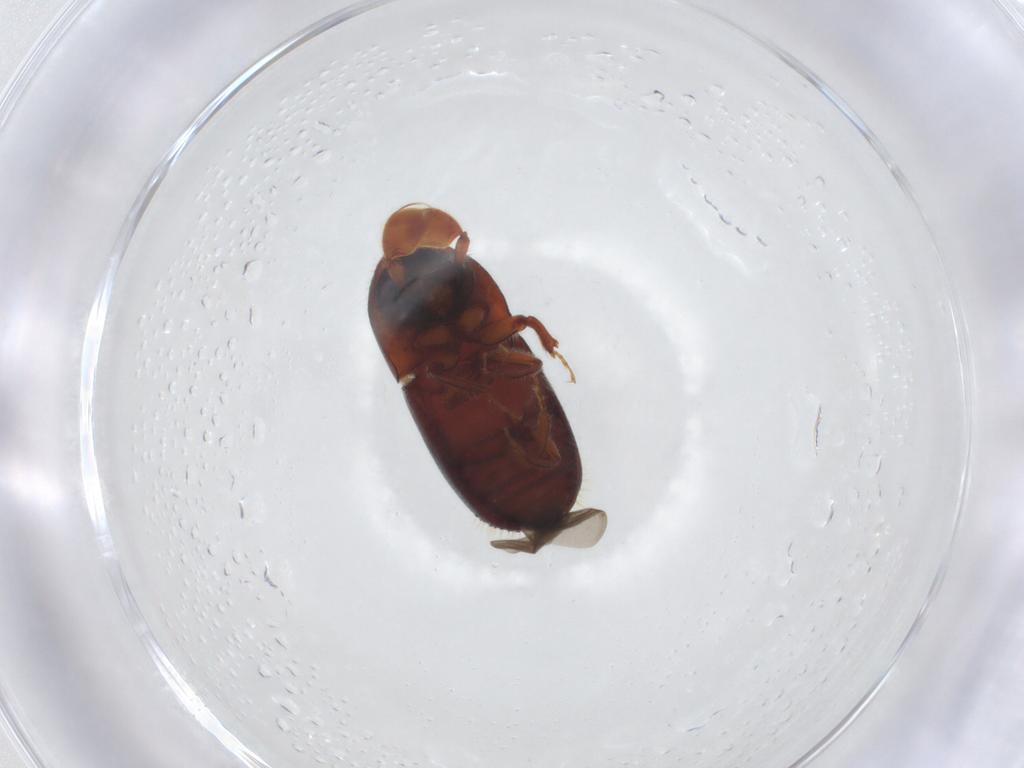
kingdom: Animalia
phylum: Arthropoda
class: Insecta
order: Coleoptera
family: Curculionidae
